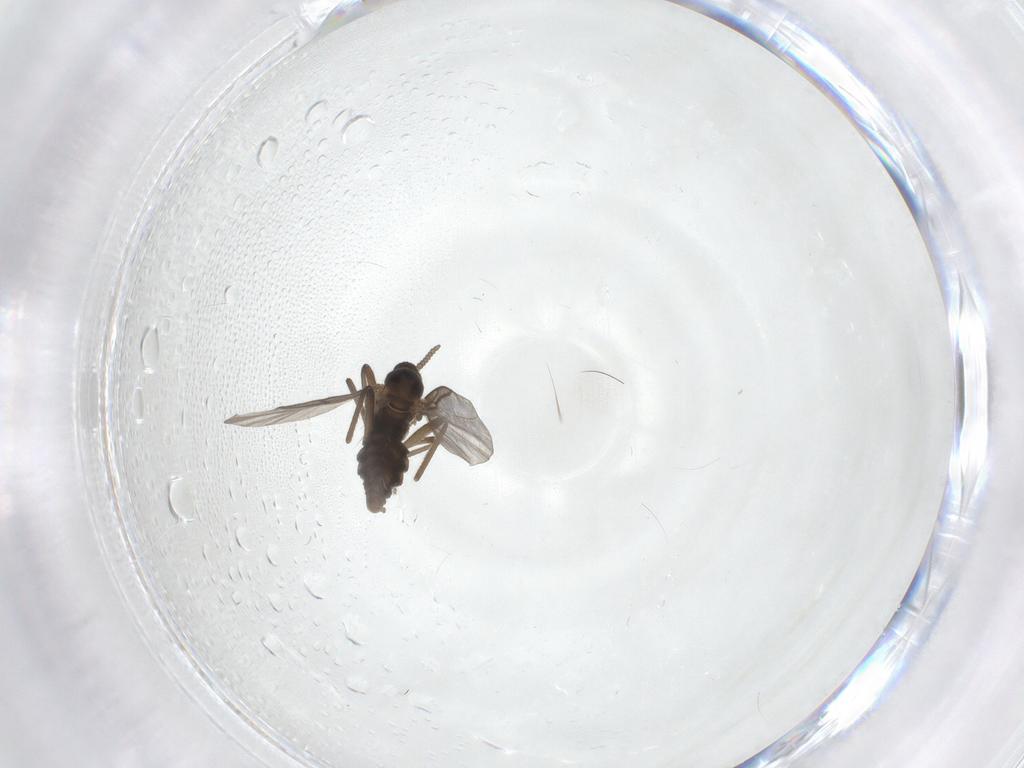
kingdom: Animalia
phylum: Arthropoda
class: Insecta
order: Diptera
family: Cecidomyiidae
